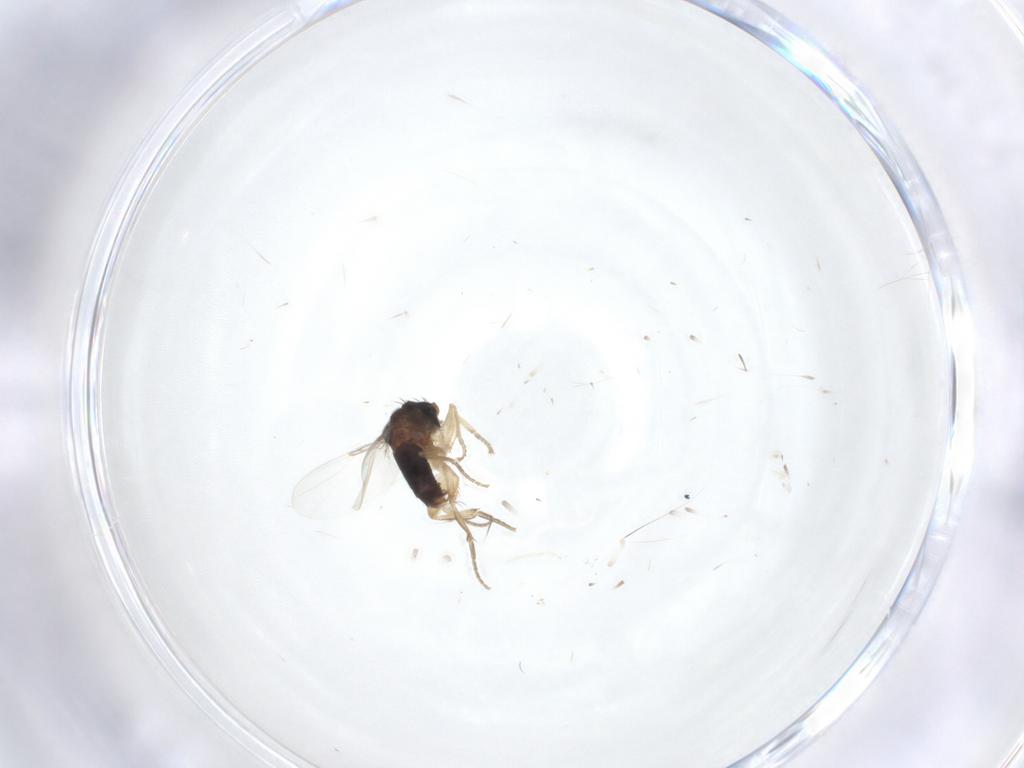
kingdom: Animalia
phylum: Arthropoda
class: Insecta
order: Diptera
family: Phoridae
